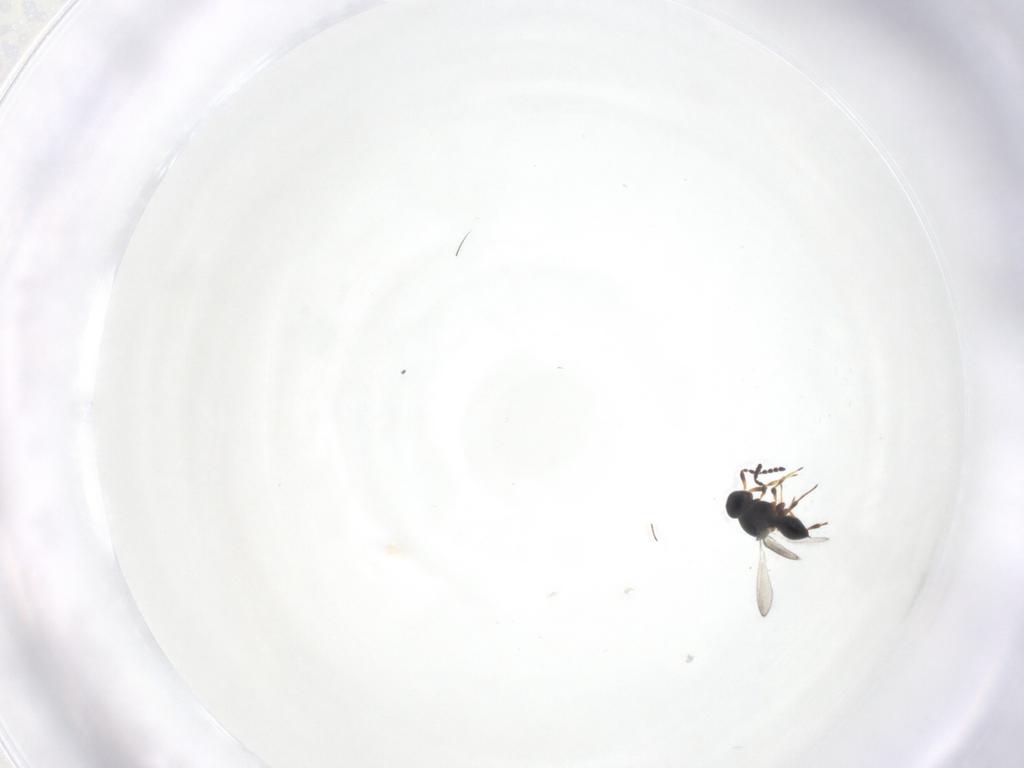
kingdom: Animalia
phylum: Arthropoda
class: Insecta
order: Hymenoptera
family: Platygastridae
